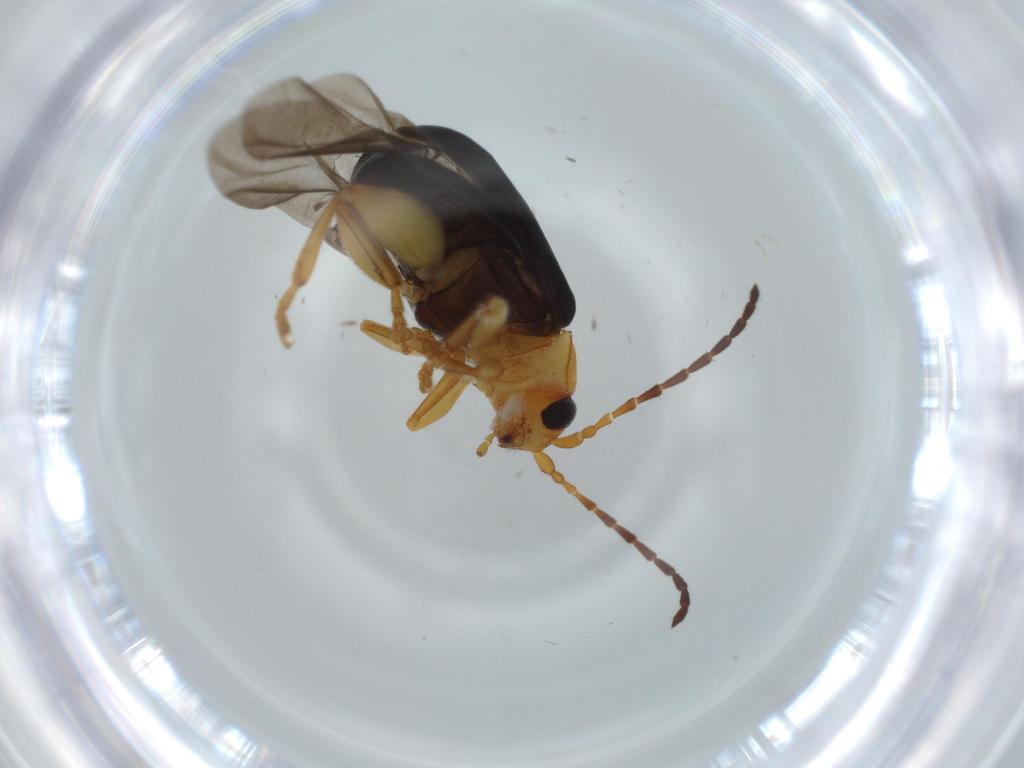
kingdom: Animalia
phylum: Arthropoda
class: Insecta
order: Coleoptera
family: Chrysomelidae
